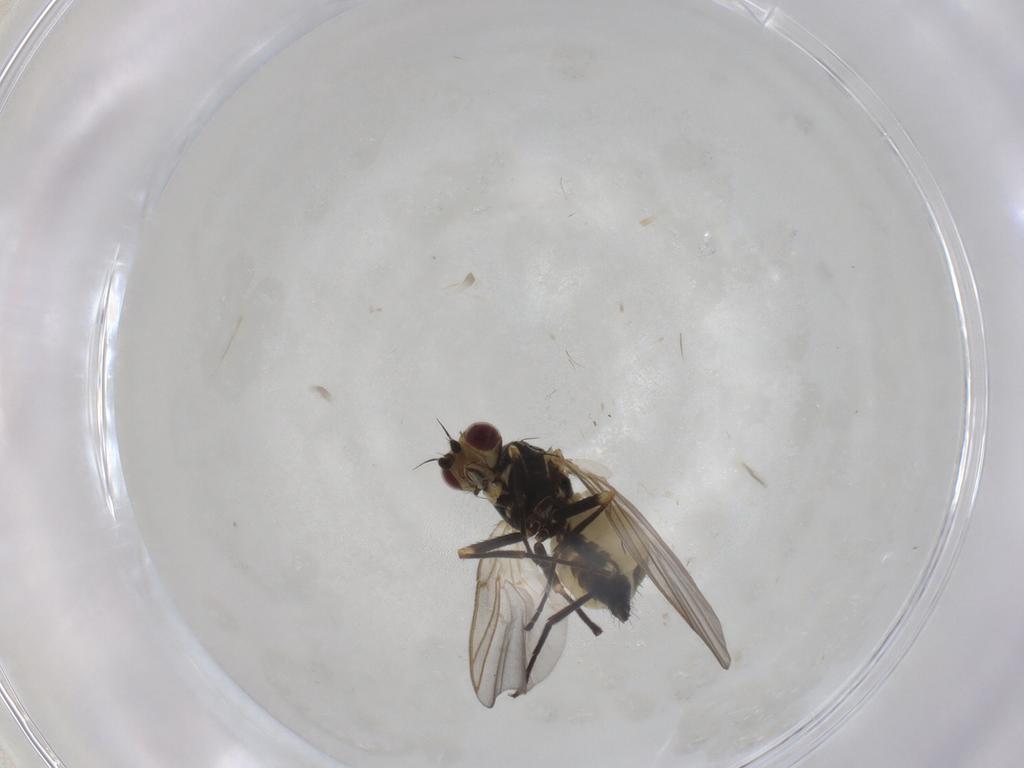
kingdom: Animalia
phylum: Arthropoda
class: Insecta
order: Diptera
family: Sciaridae
